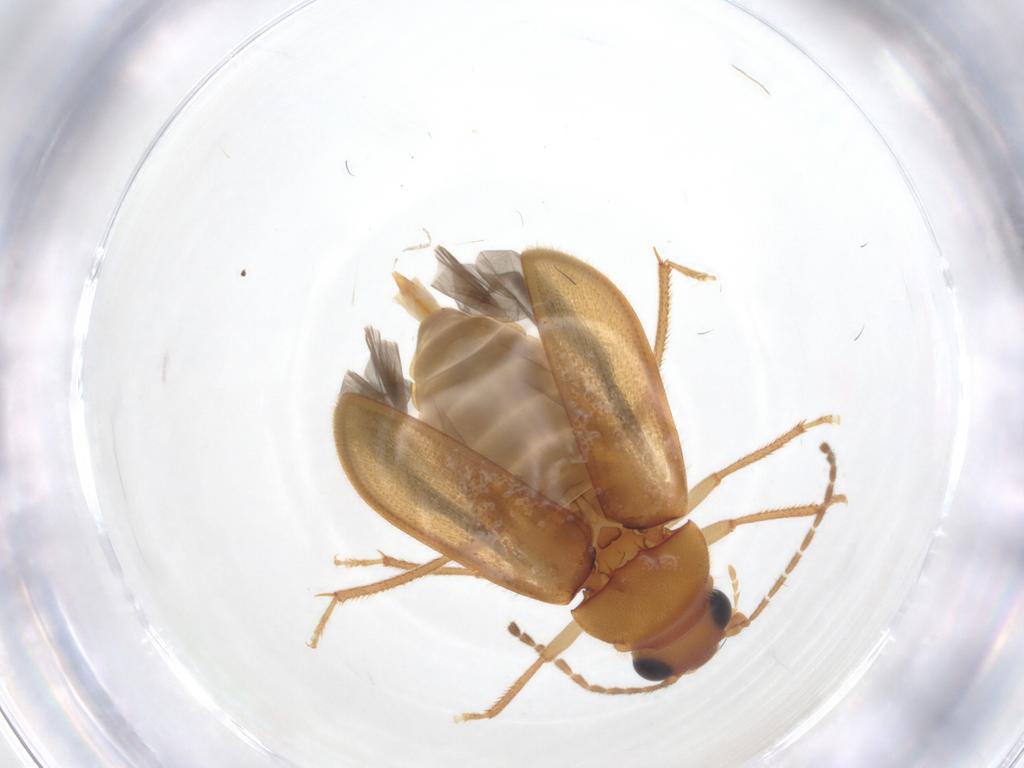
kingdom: Animalia
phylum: Arthropoda
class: Insecta
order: Coleoptera
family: Ptilodactylidae
